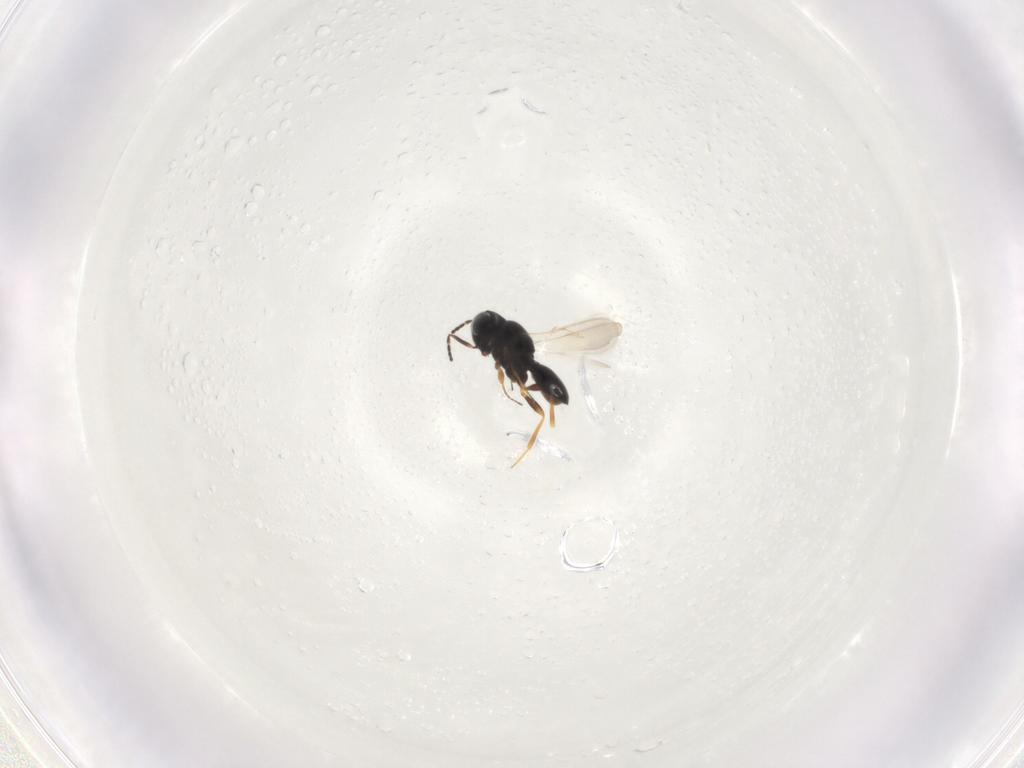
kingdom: Animalia
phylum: Arthropoda
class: Insecta
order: Hymenoptera
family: Scelionidae
